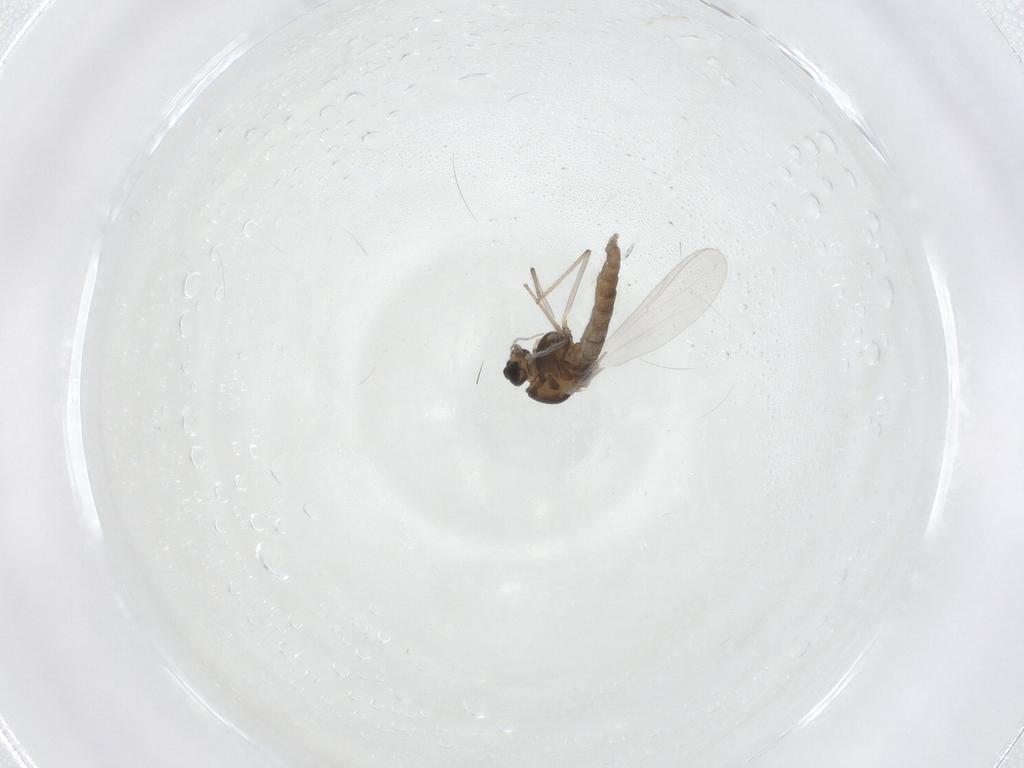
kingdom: Animalia
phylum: Arthropoda
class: Insecta
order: Diptera
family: Chironomidae
